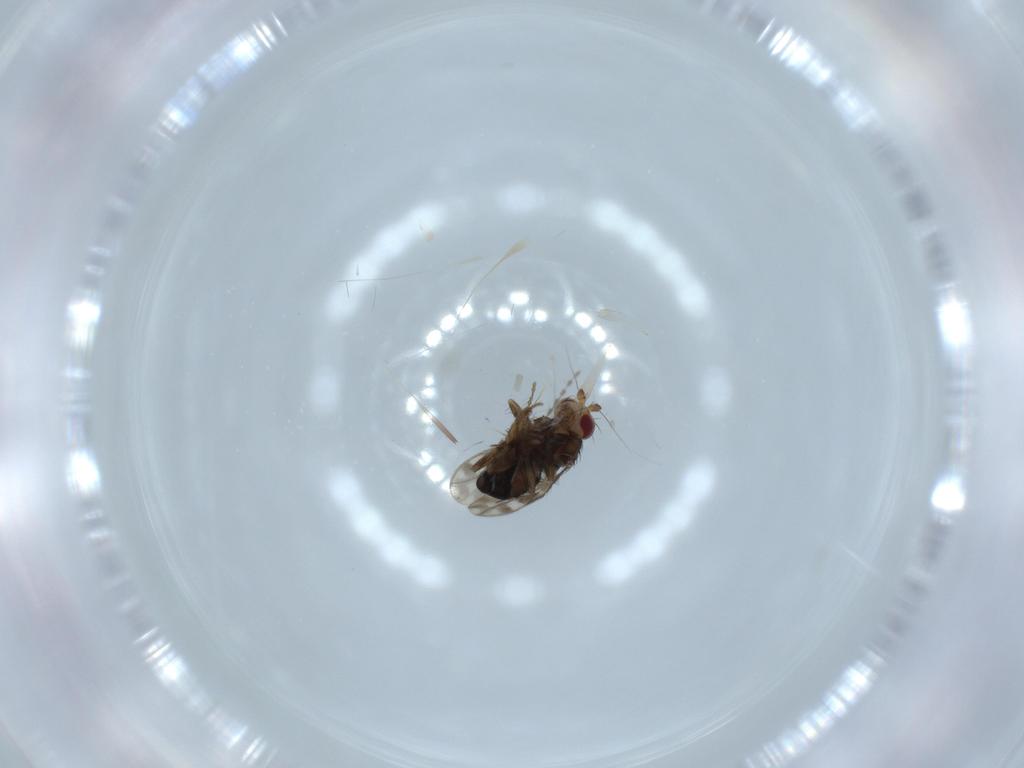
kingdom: Animalia
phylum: Arthropoda
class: Insecta
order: Diptera
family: Sphaeroceridae
